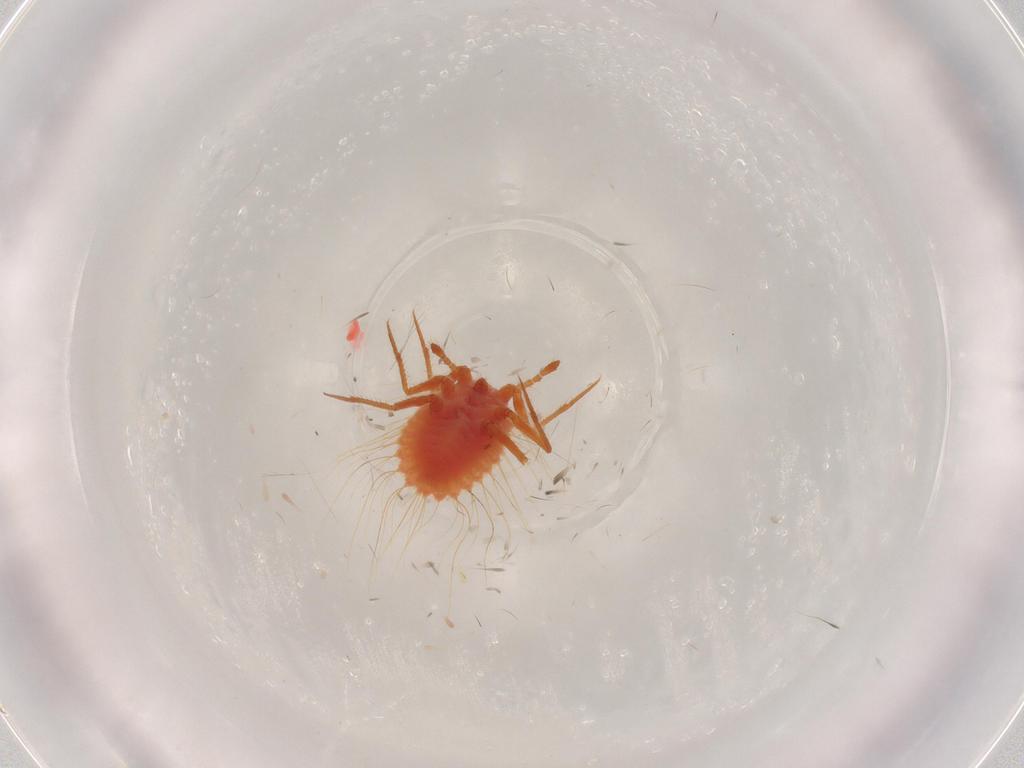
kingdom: Animalia
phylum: Arthropoda
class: Insecta
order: Hemiptera
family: Cicadellidae
